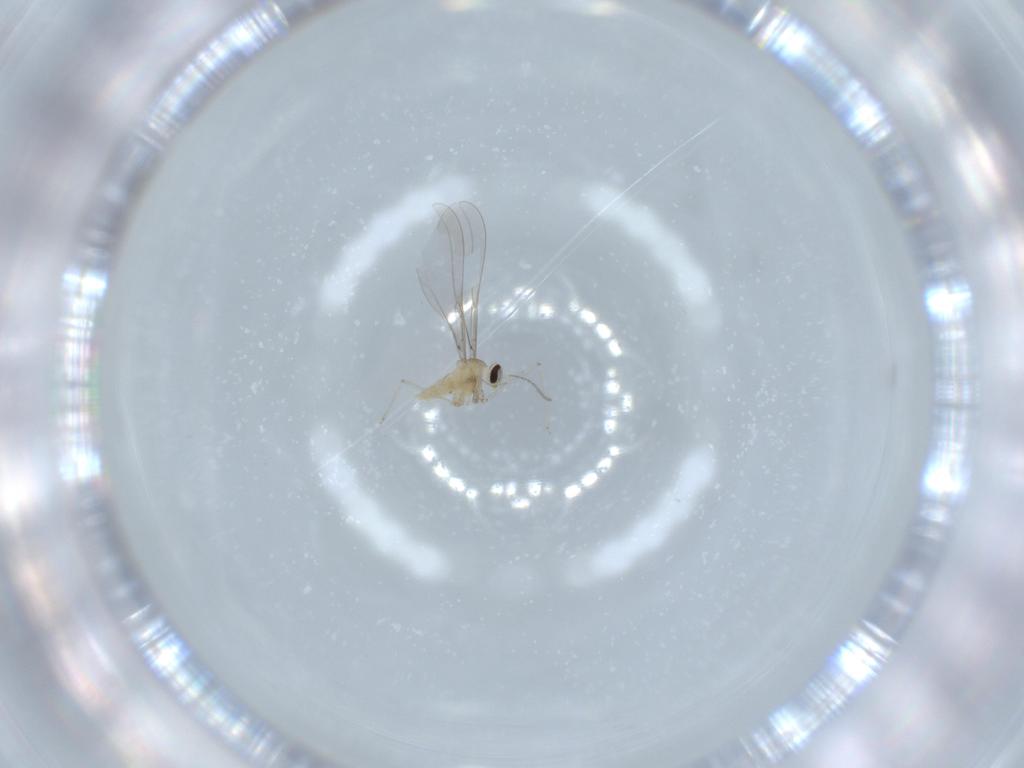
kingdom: Animalia
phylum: Arthropoda
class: Insecta
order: Diptera
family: Cecidomyiidae
